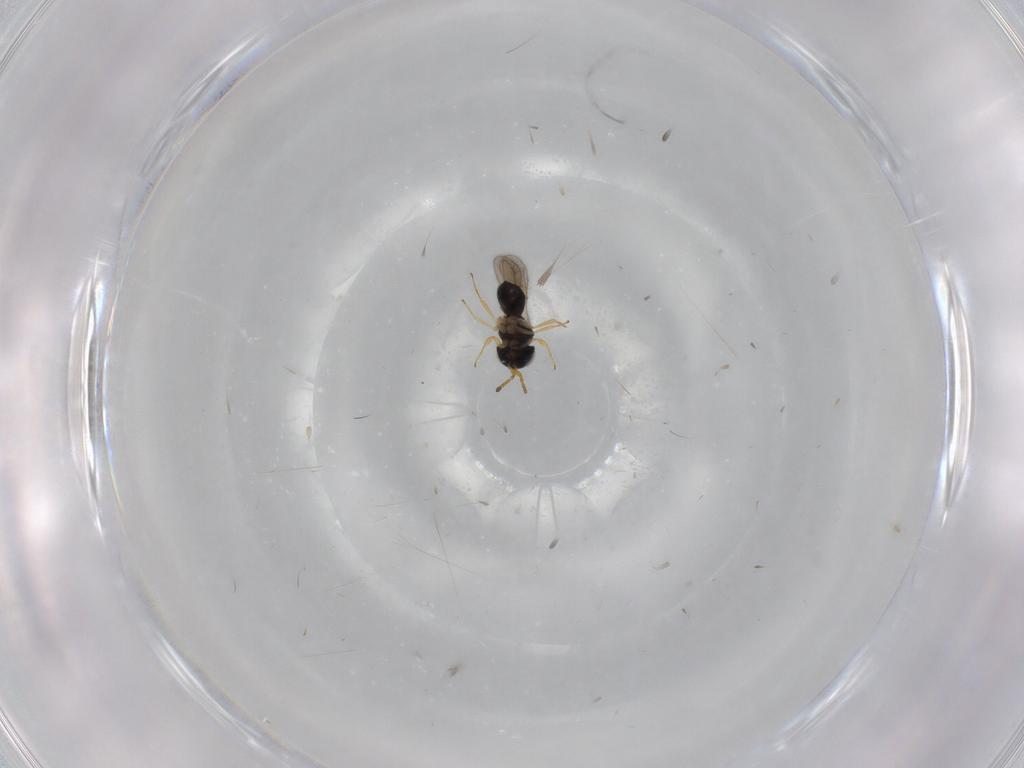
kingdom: Animalia
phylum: Arthropoda
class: Insecta
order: Hymenoptera
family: Scelionidae
